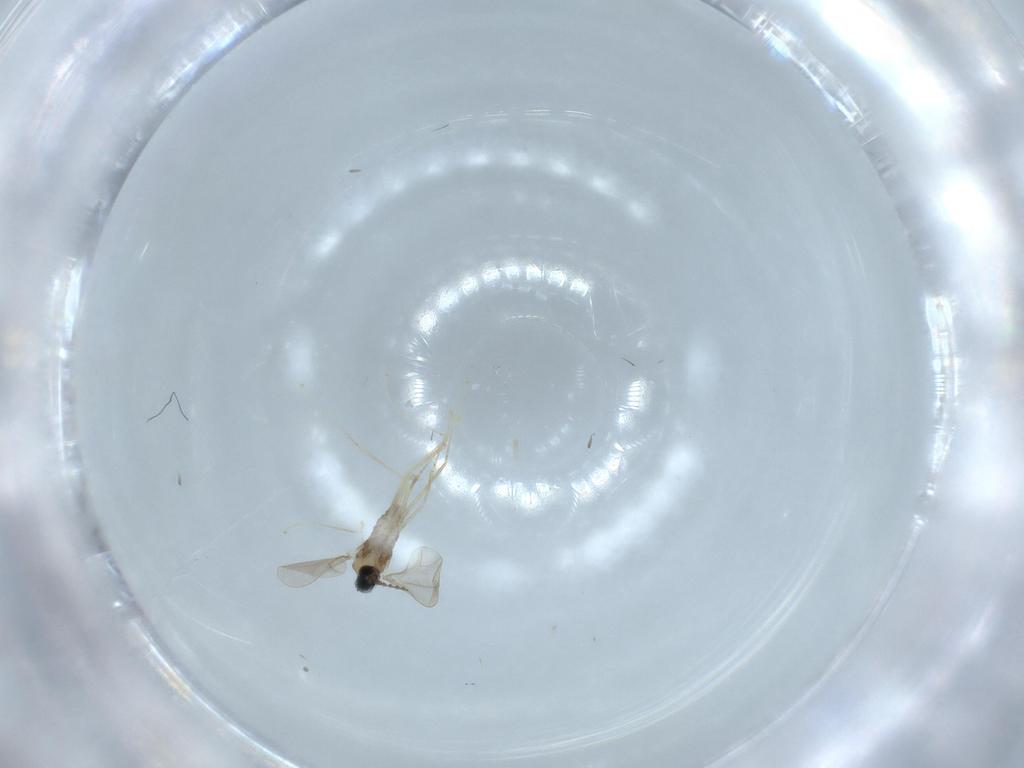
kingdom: Animalia
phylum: Arthropoda
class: Insecta
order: Diptera
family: Cecidomyiidae
